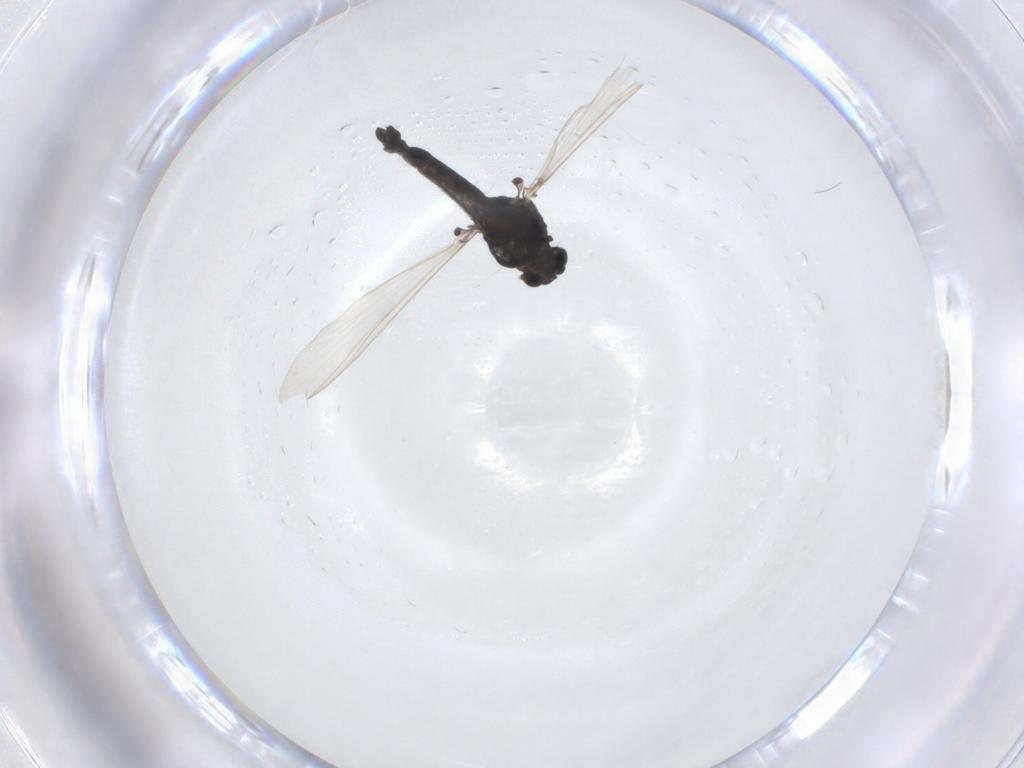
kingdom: Animalia
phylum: Arthropoda
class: Insecta
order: Diptera
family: Chironomidae
